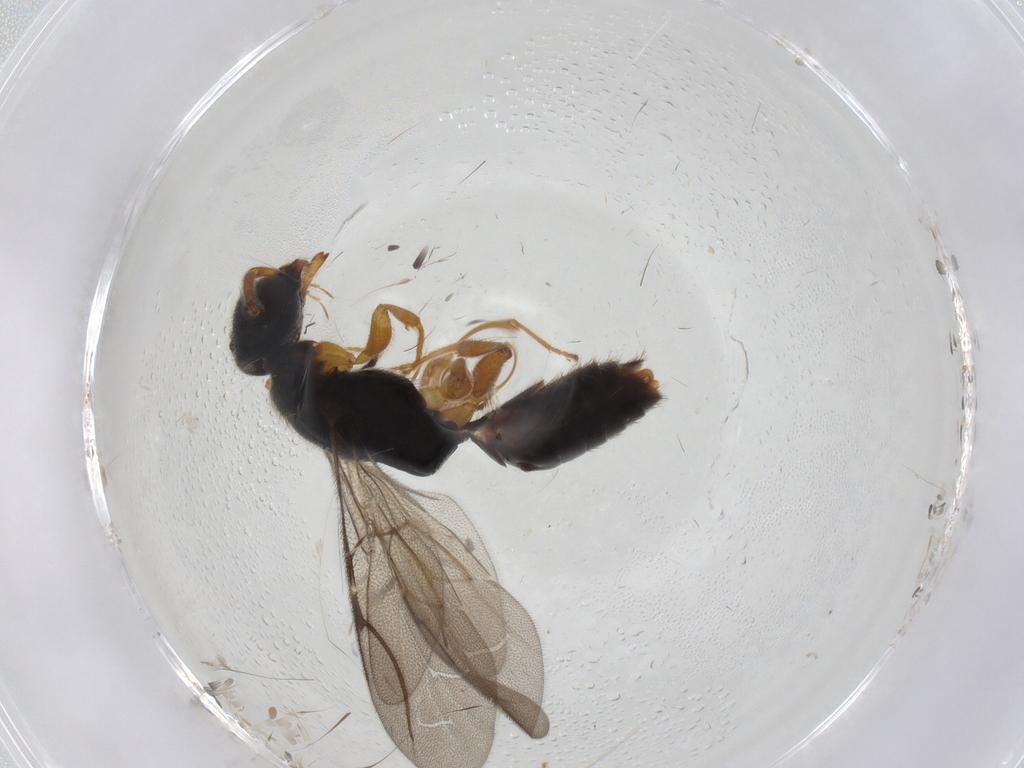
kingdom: Animalia
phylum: Arthropoda
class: Insecta
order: Hymenoptera
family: Bethylidae
